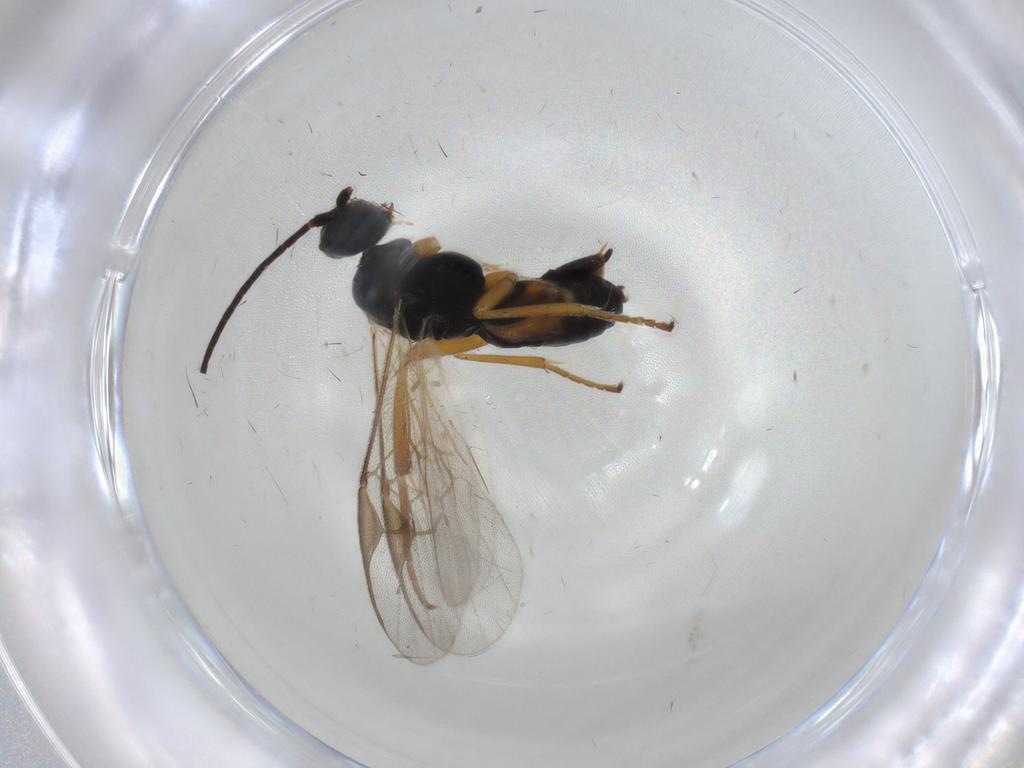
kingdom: Animalia
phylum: Arthropoda
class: Insecta
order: Hymenoptera
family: Braconidae
